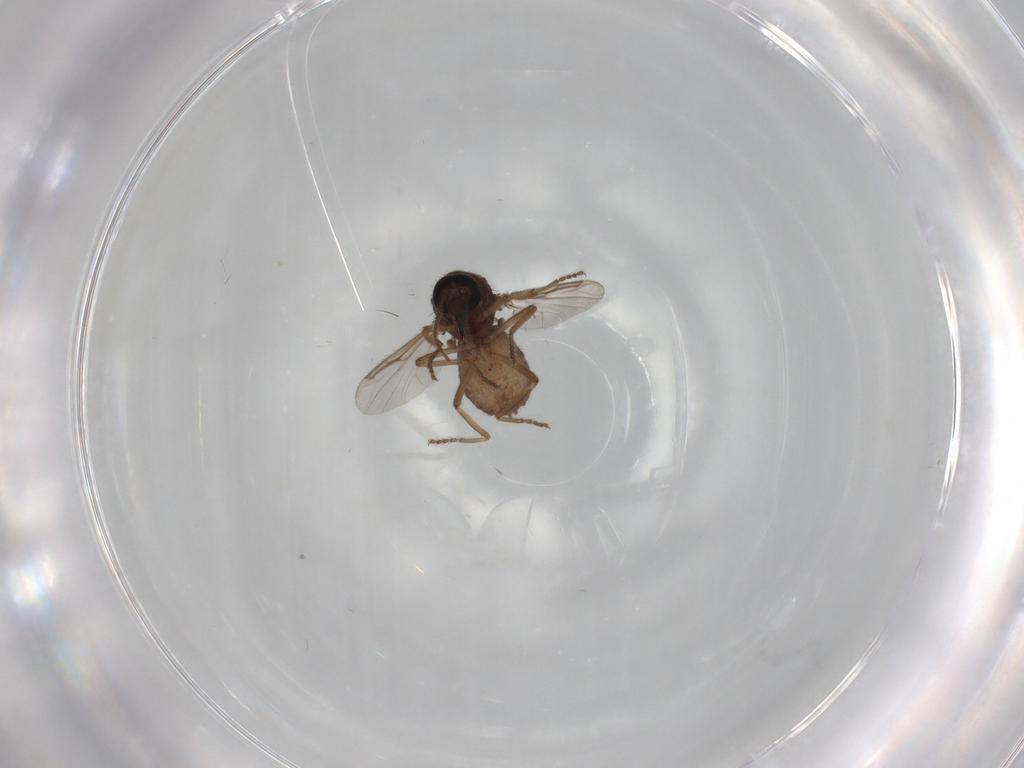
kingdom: Animalia
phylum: Arthropoda
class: Insecta
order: Diptera
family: Ceratopogonidae
